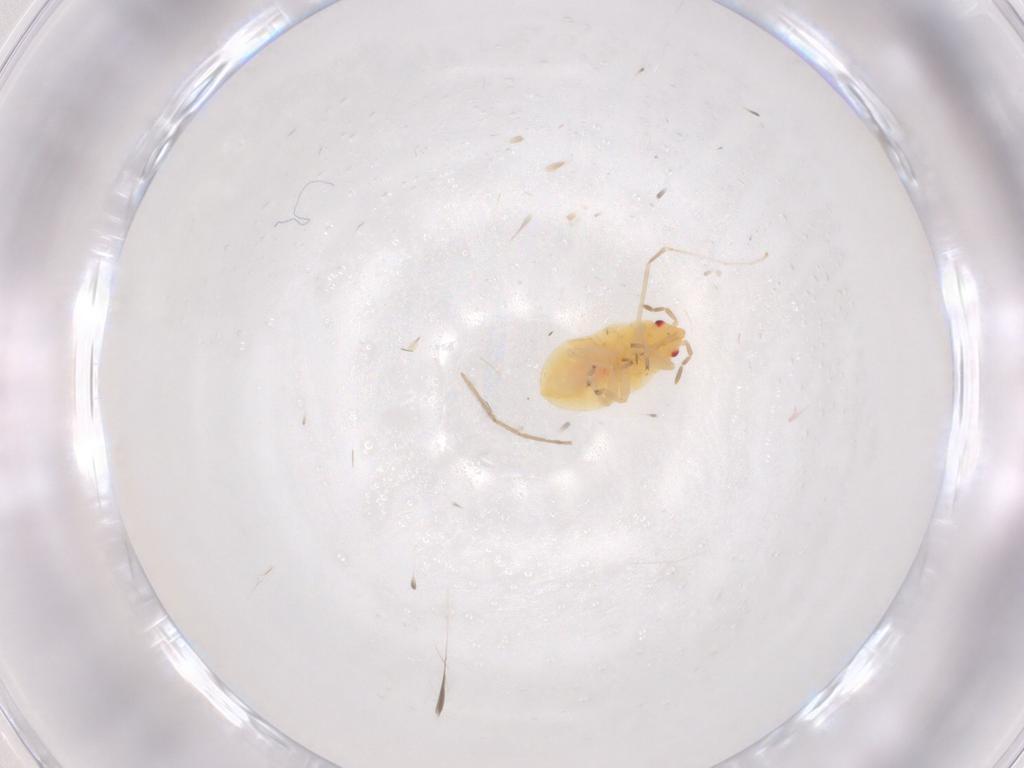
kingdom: Animalia
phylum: Arthropoda
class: Insecta
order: Hemiptera
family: Anthocoridae
